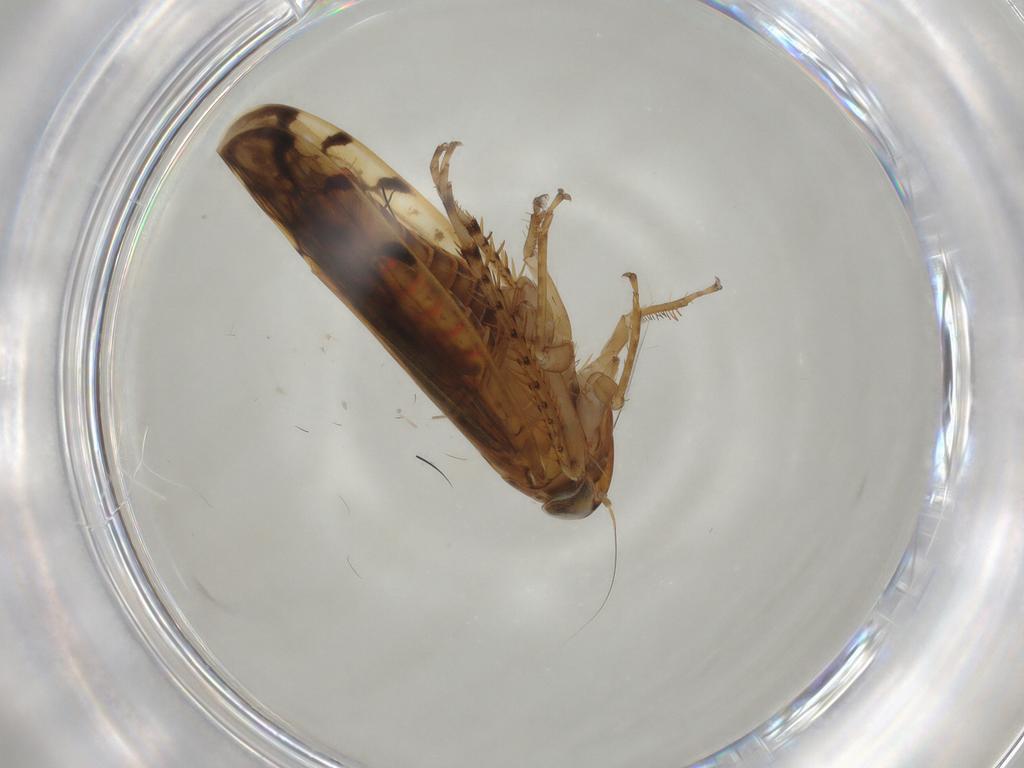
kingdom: Animalia
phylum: Arthropoda
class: Insecta
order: Hemiptera
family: Cicadellidae
